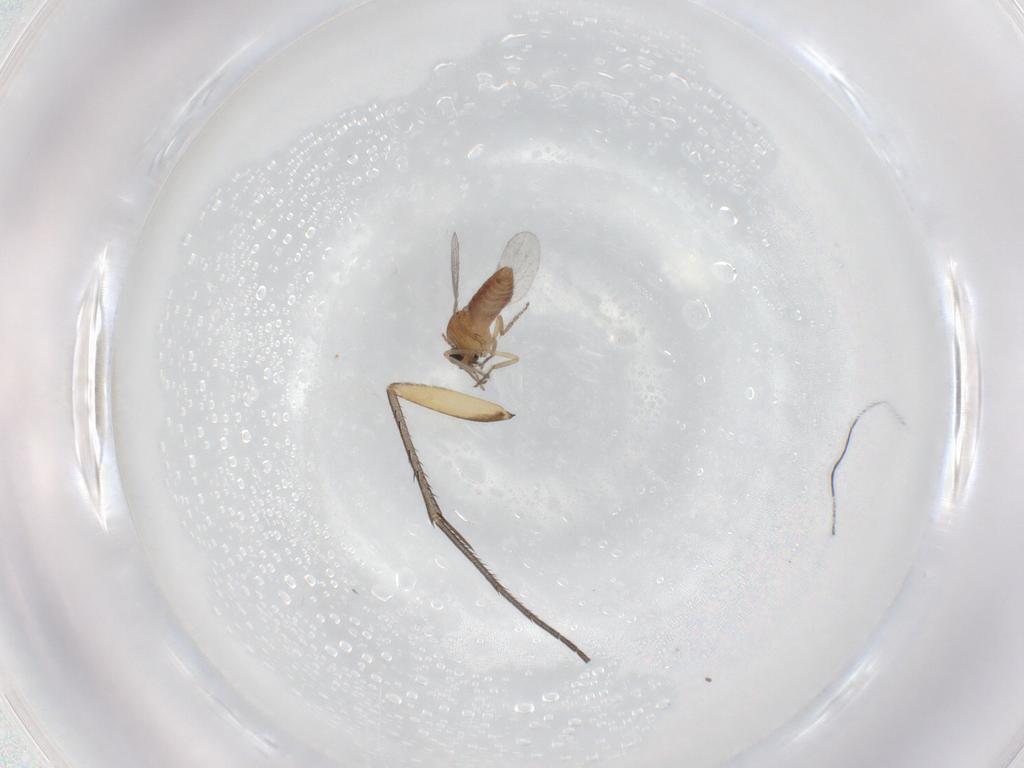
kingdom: Animalia
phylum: Arthropoda
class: Insecta
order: Diptera
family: Ceratopogonidae
